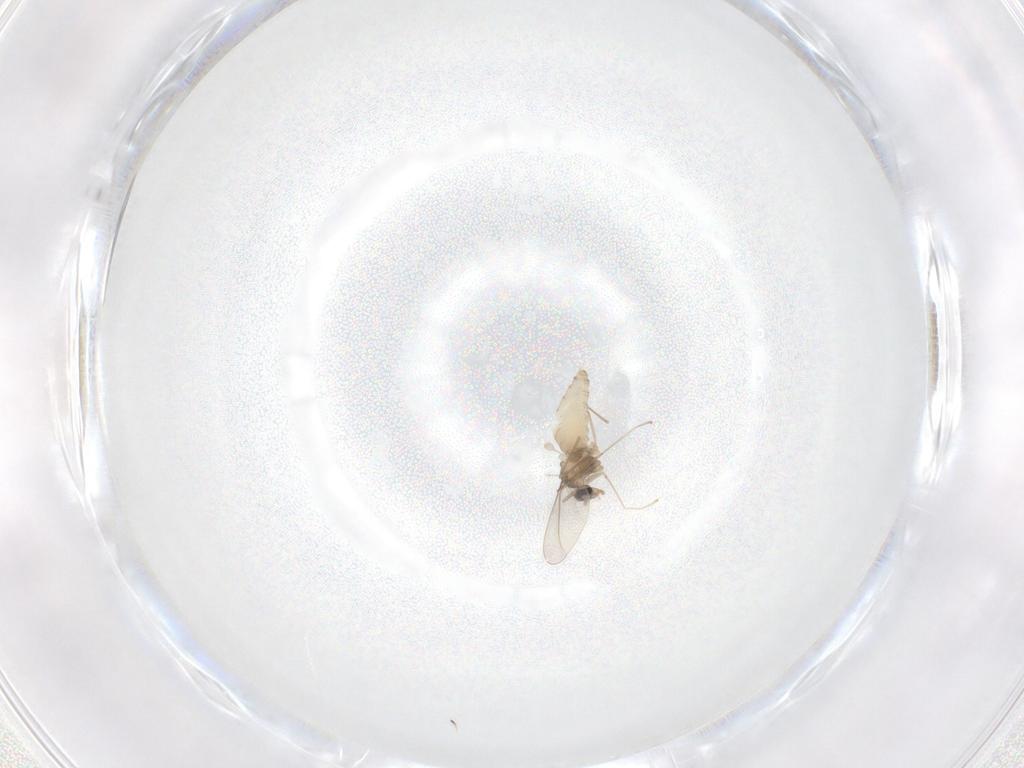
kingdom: Animalia
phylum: Arthropoda
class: Insecta
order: Diptera
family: Cecidomyiidae
